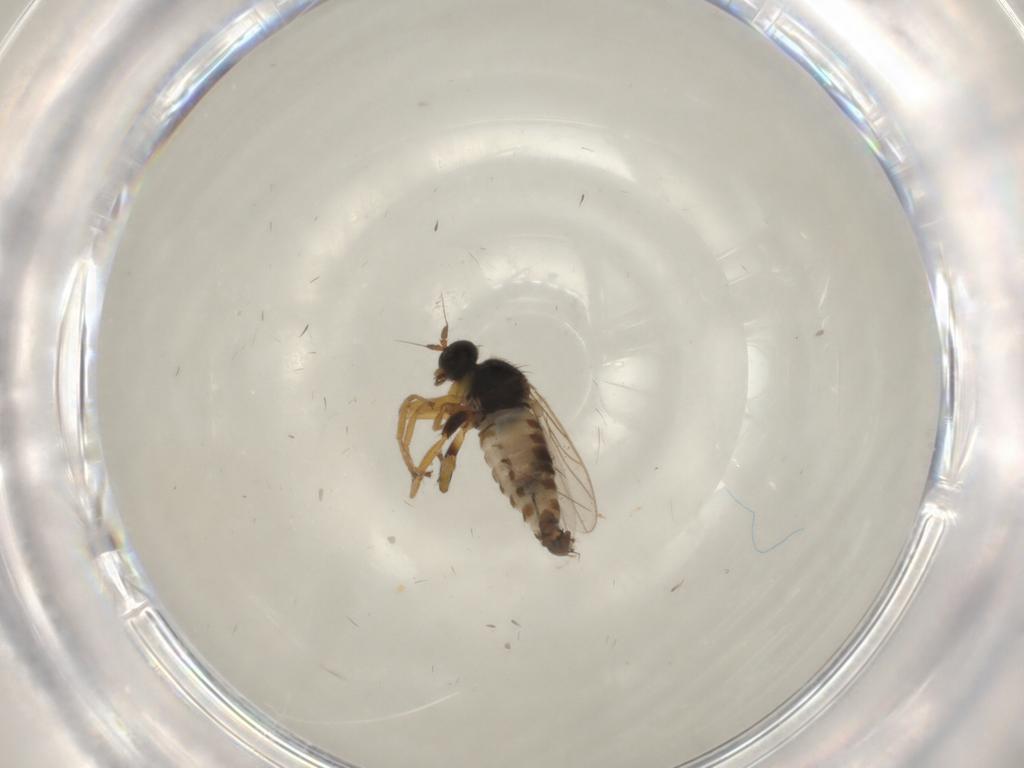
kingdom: Animalia
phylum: Arthropoda
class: Insecta
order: Diptera
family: Hybotidae
